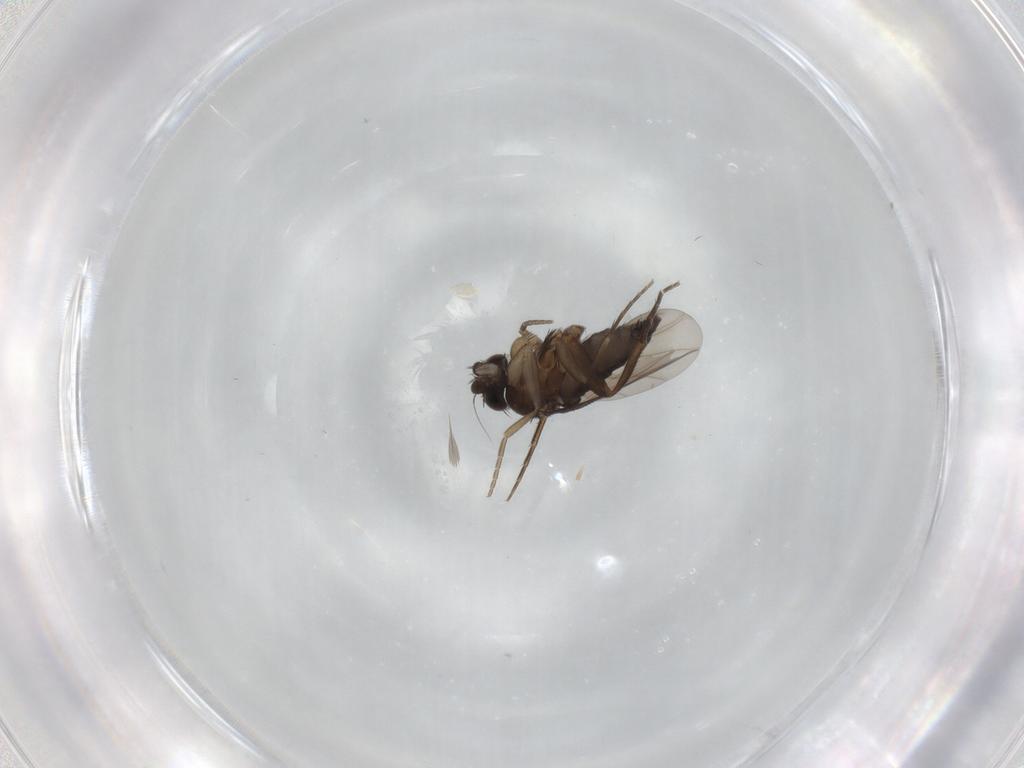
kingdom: Animalia
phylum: Arthropoda
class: Insecta
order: Diptera
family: Phoridae
